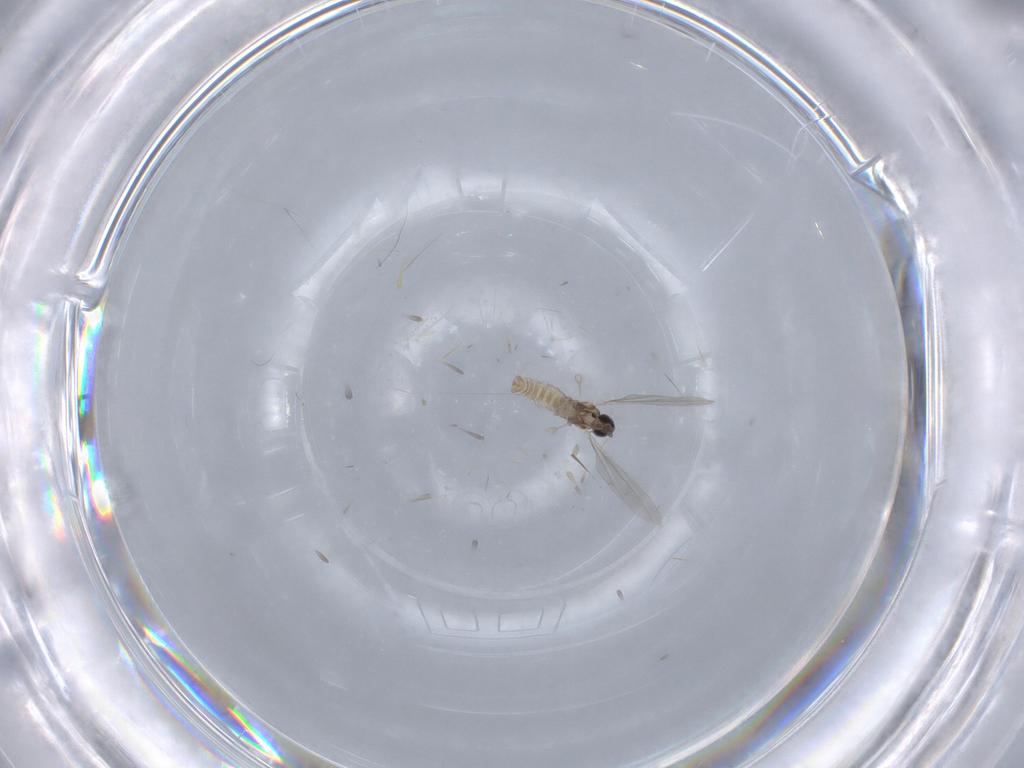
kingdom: Animalia
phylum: Arthropoda
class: Insecta
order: Diptera
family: Cecidomyiidae
